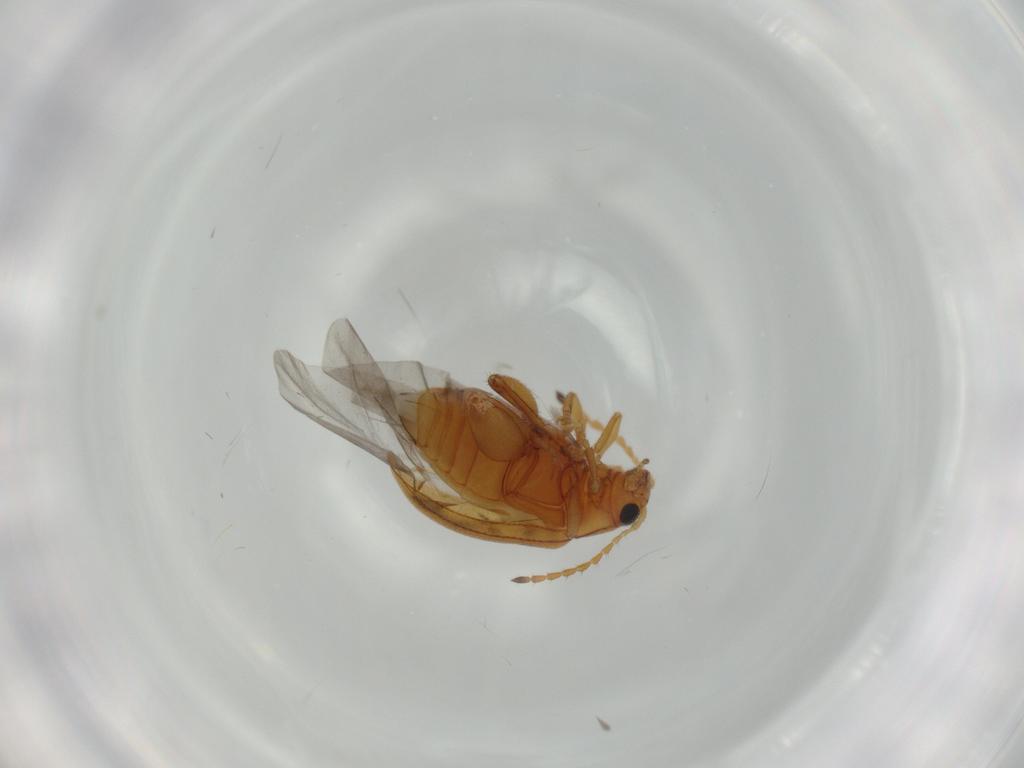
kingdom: Animalia
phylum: Arthropoda
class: Insecta
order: Coleoptera
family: Chrysomelidae
